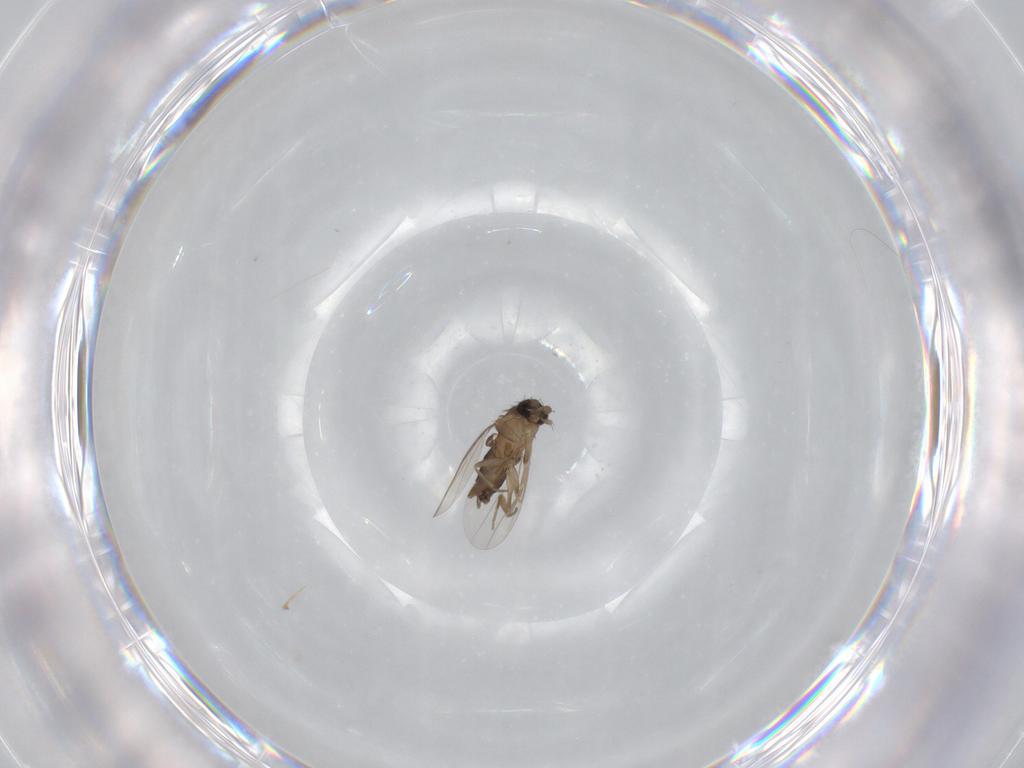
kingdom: Animalia
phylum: Arthropoda
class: Insecta
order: Diptera
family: Phoridae
